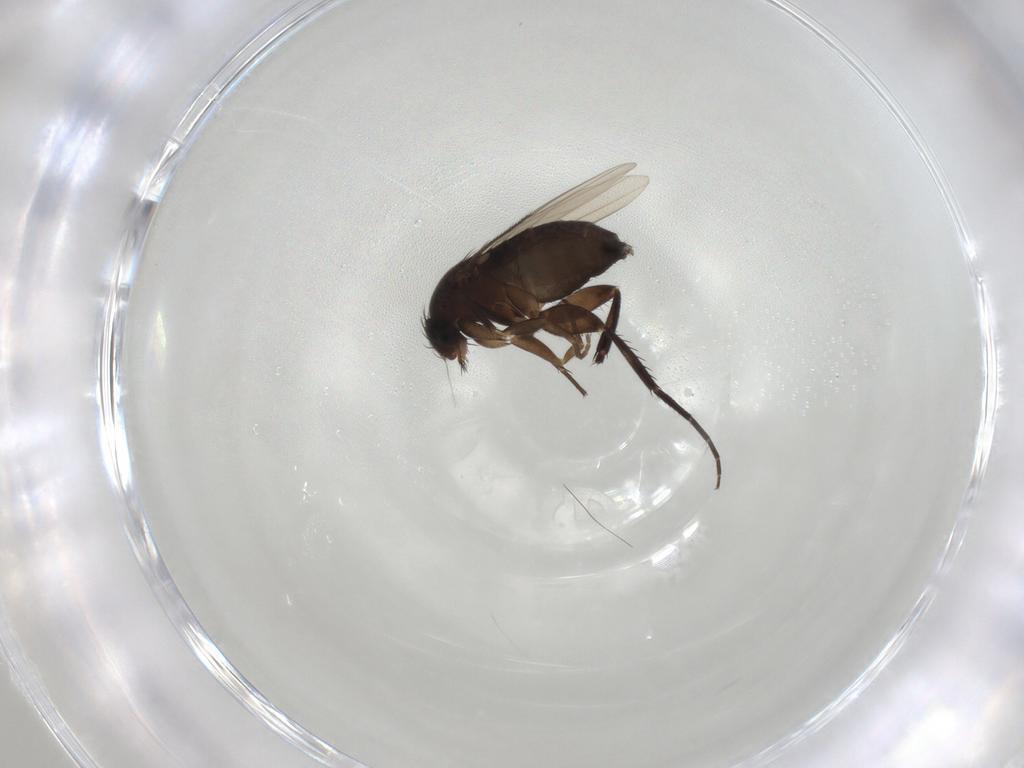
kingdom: Animalia
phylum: Arthropoda
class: Insecta
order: Diptera
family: Phoridae
